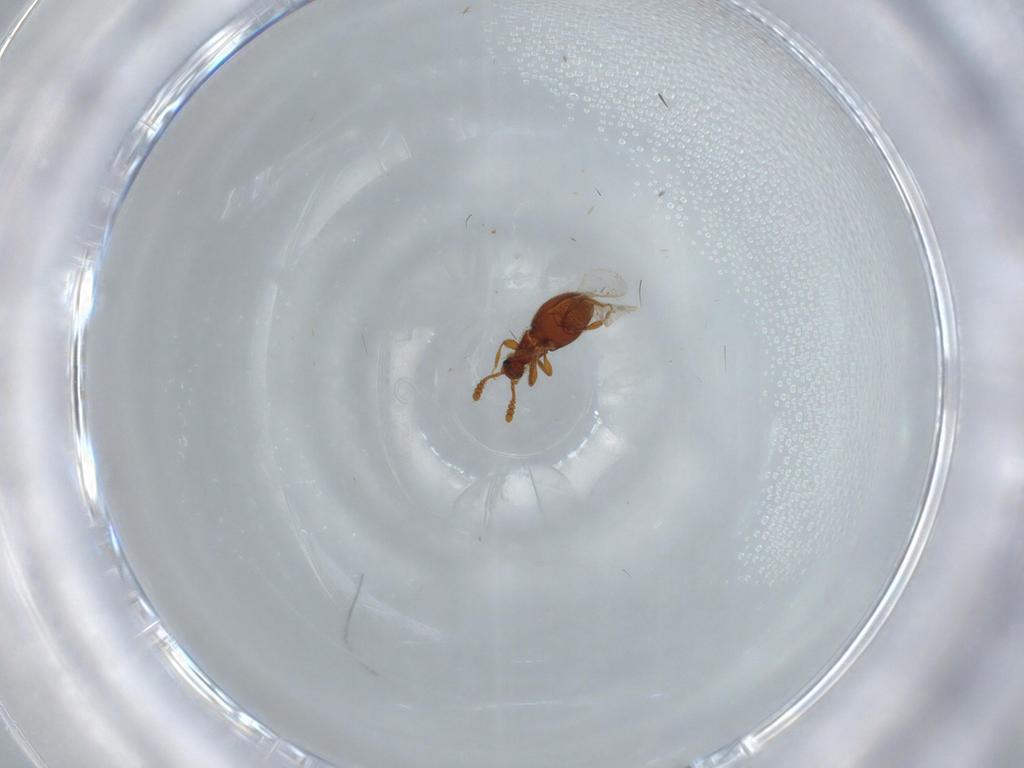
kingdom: Animalia
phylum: Arthropoda
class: Insecta
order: Coleoptera
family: Staphylinidae
